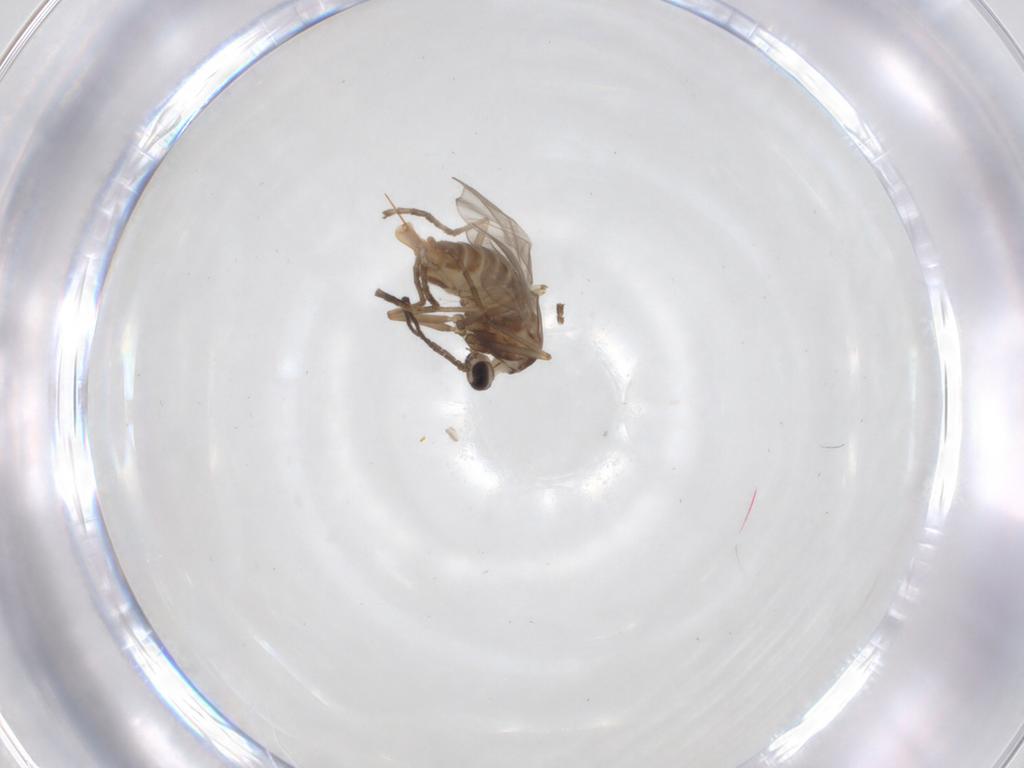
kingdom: Animalia
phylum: Arthropoda
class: Insecta
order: Diptera
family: Cecidomyiidae
